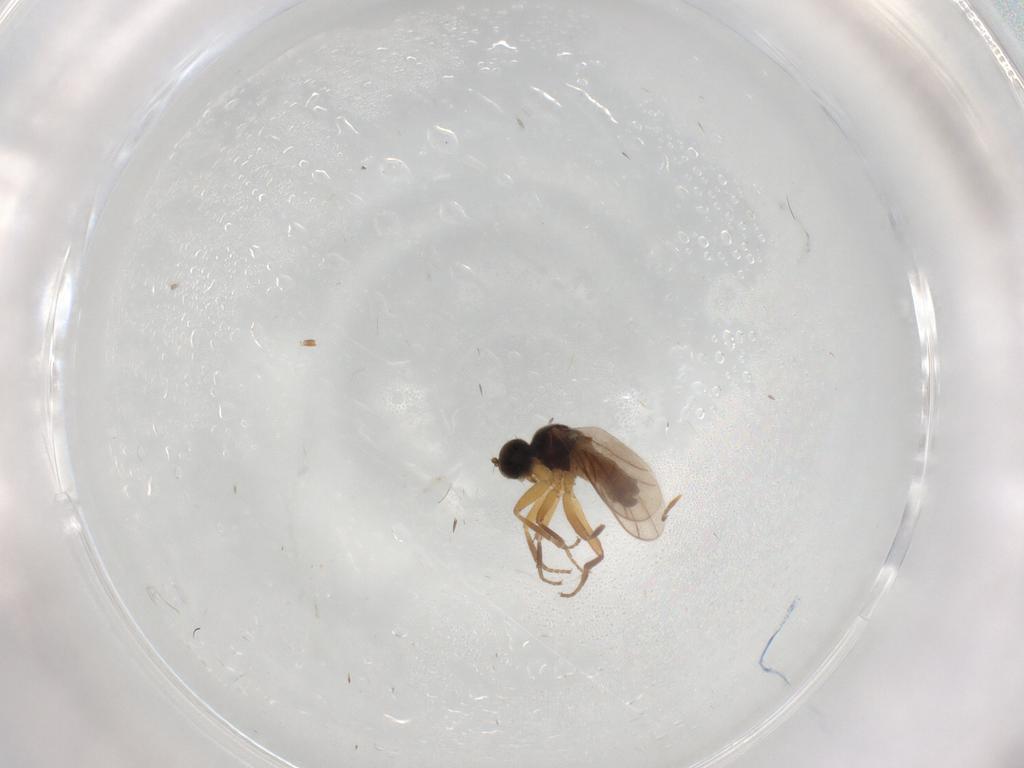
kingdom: Animalia
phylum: Arthropoda
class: Insecta
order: Diptera
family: Hybotidae
